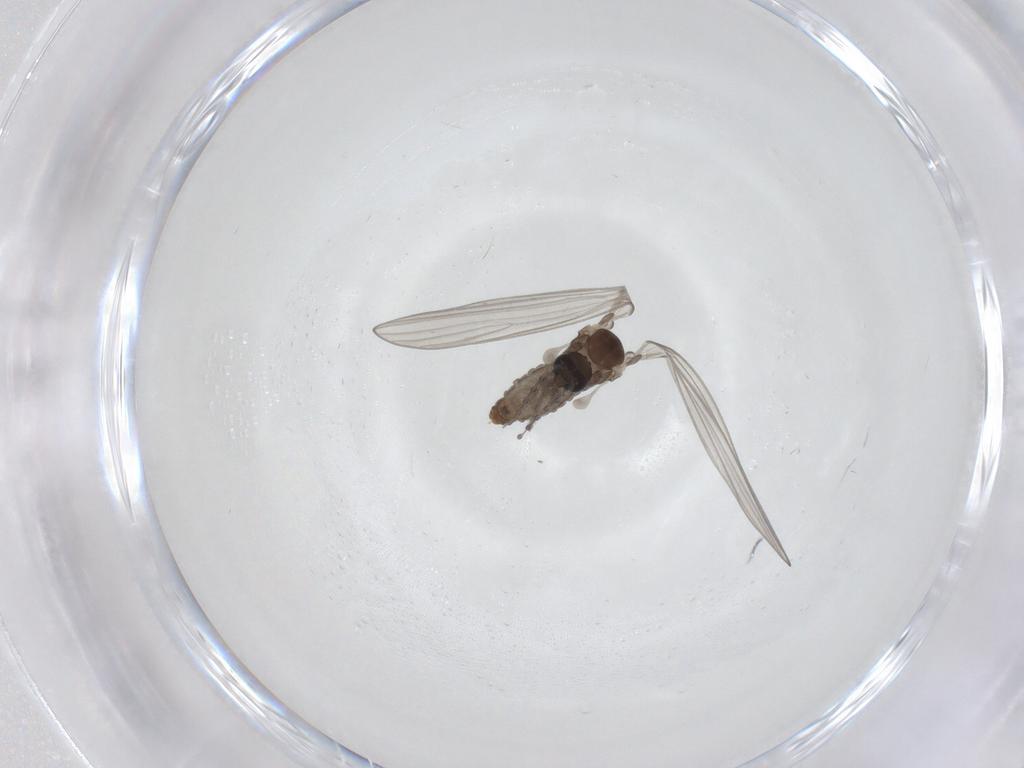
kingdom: Animalia
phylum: Arthropoda
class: Insecta
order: Diptera
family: Psychodidae
